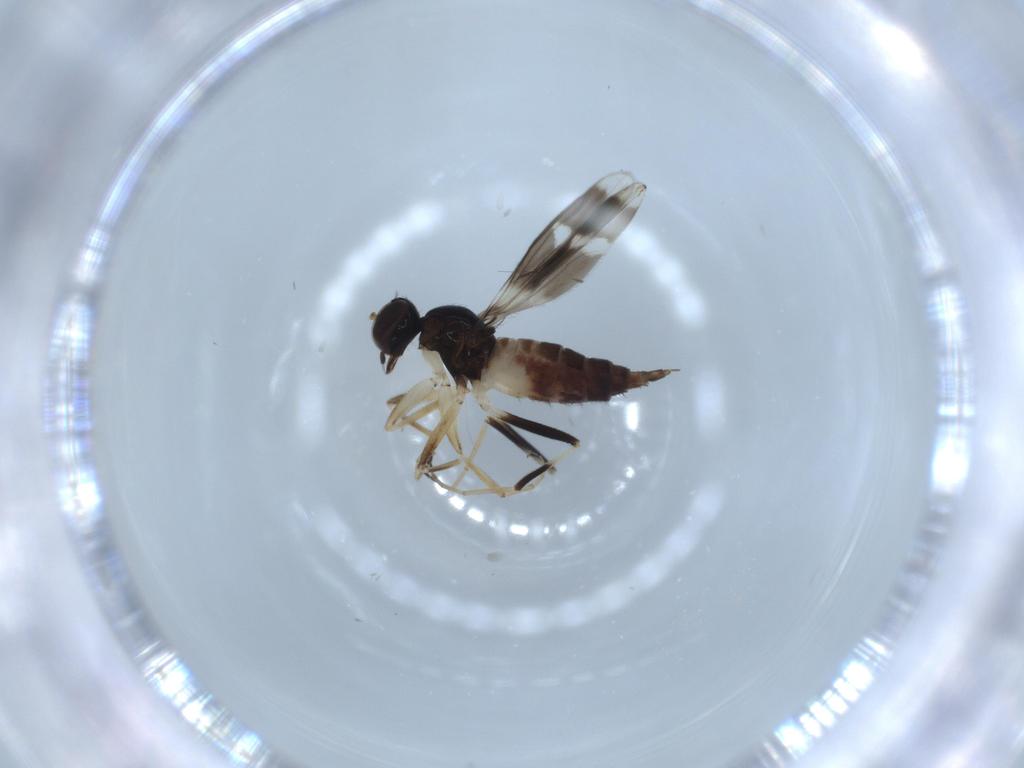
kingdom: Animalia
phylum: Arthropoda
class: Insecta
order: Diptera
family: Hybotidae
